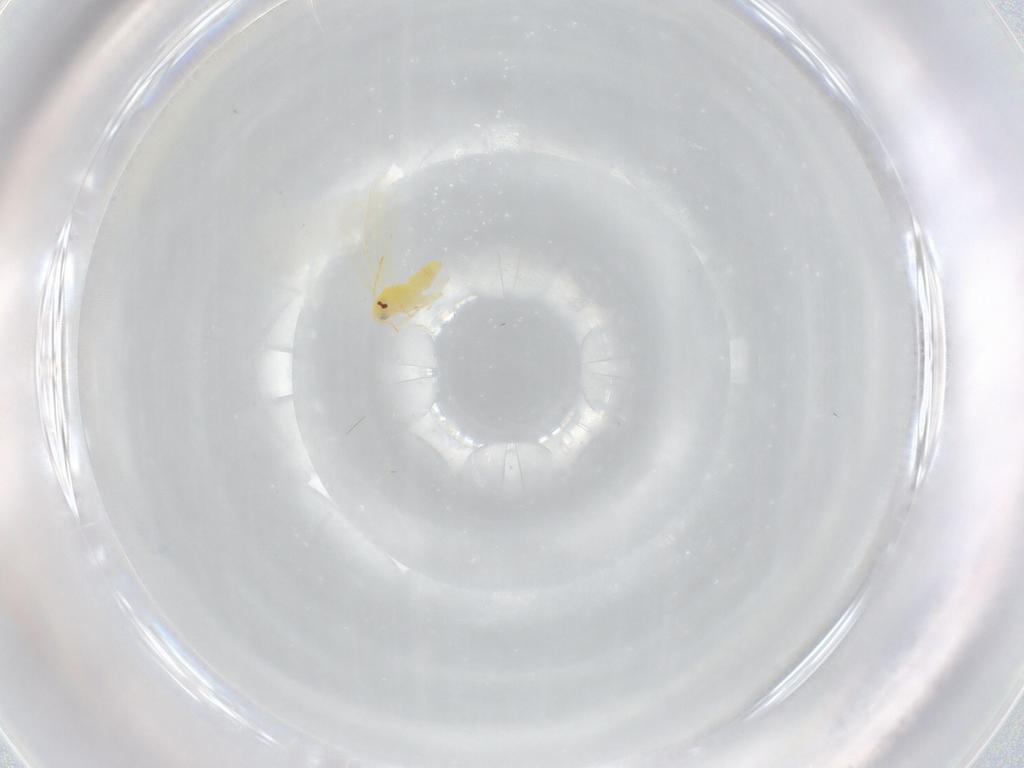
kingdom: Animalia
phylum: Arthropoda
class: Insecta
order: Hemiptera
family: Aleyrodidae
